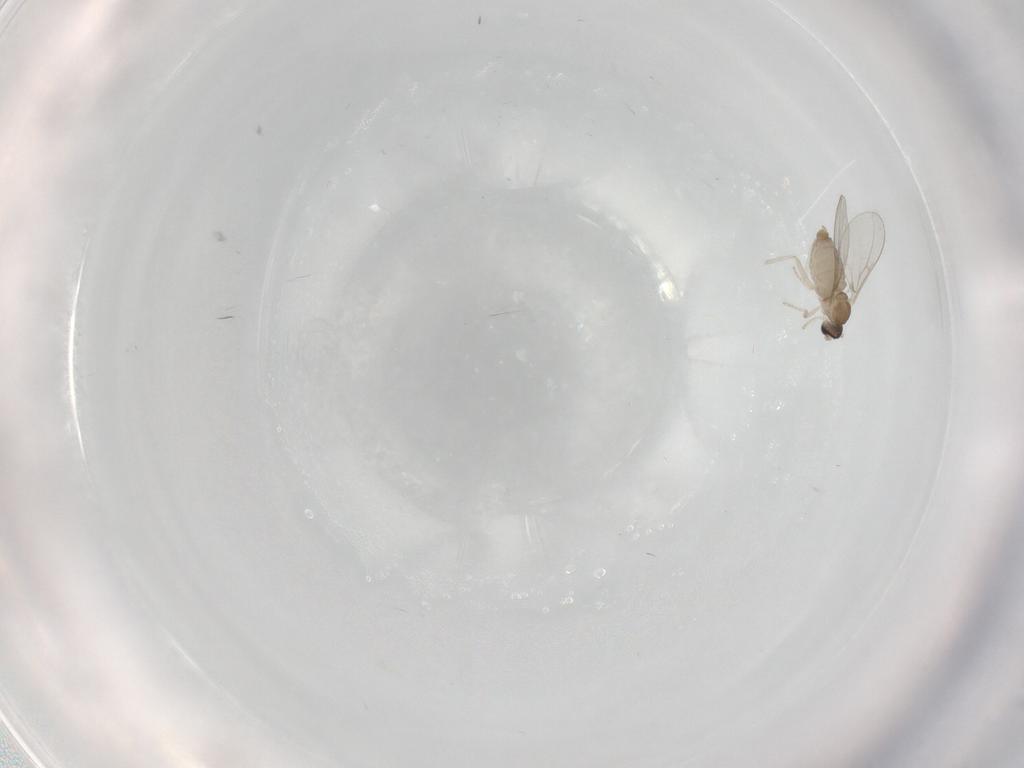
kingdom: Animalia
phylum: Arthropoda
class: Insecta
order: Diptera
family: Cecidomyiidae
